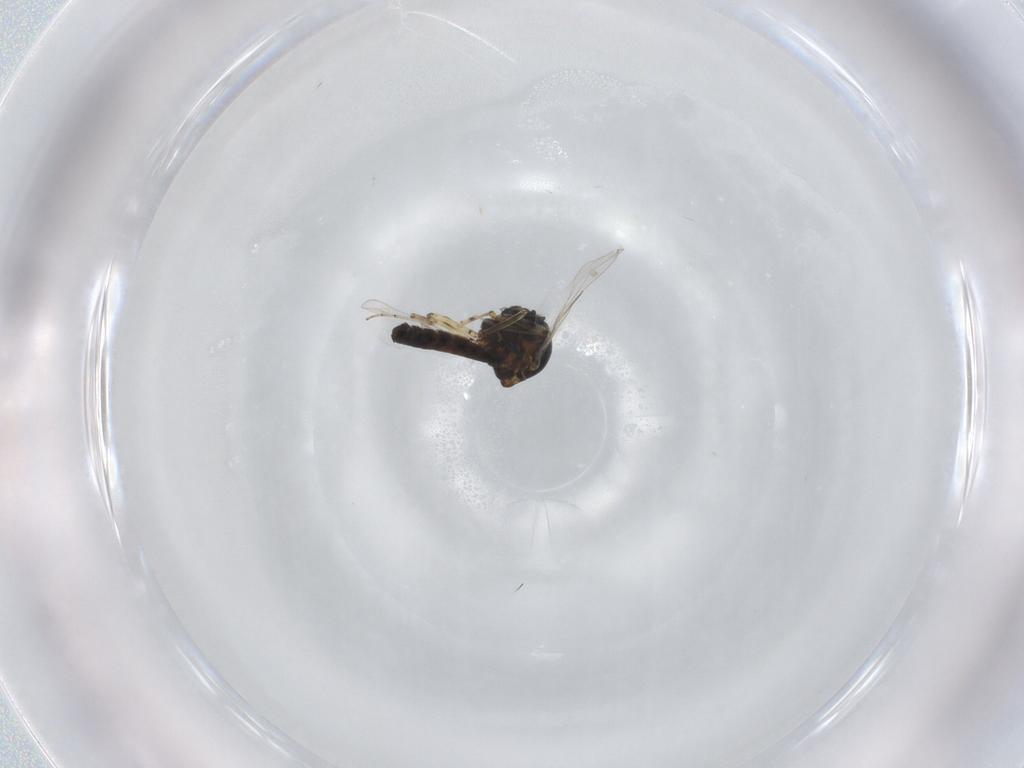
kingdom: Animalia
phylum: Arthropoda
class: Insecta
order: Diptera
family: Ceratopogonidae
